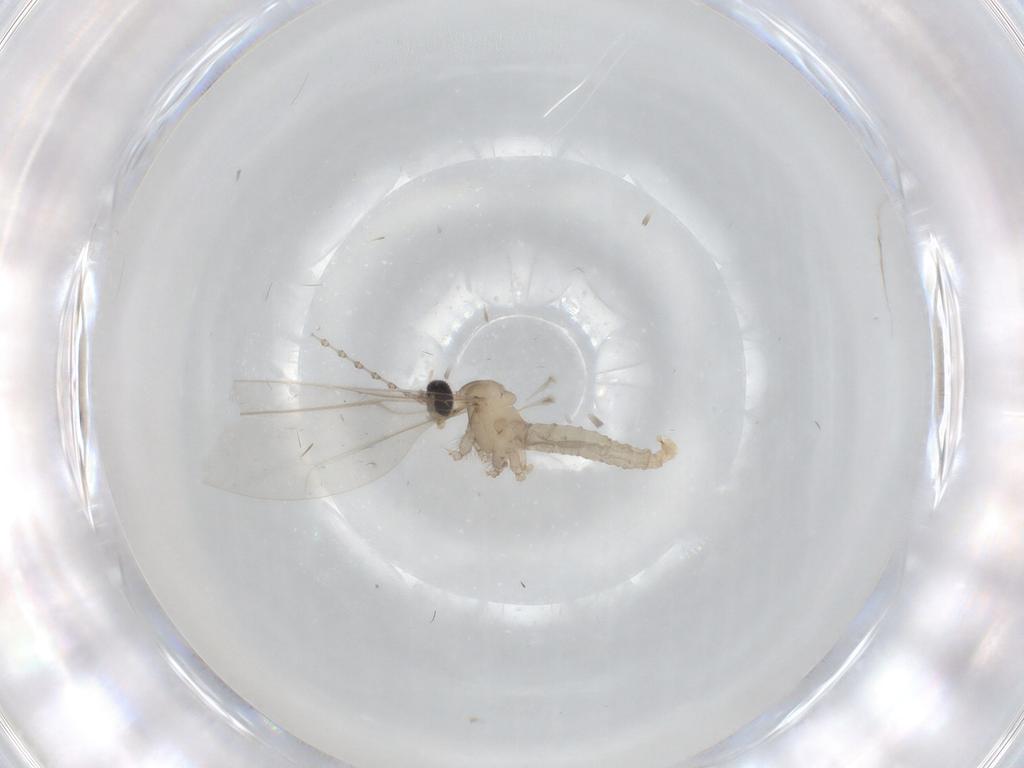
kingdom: Animalia
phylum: Arthropoda
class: Insecta
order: Diptera
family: Cecidomyiidae
